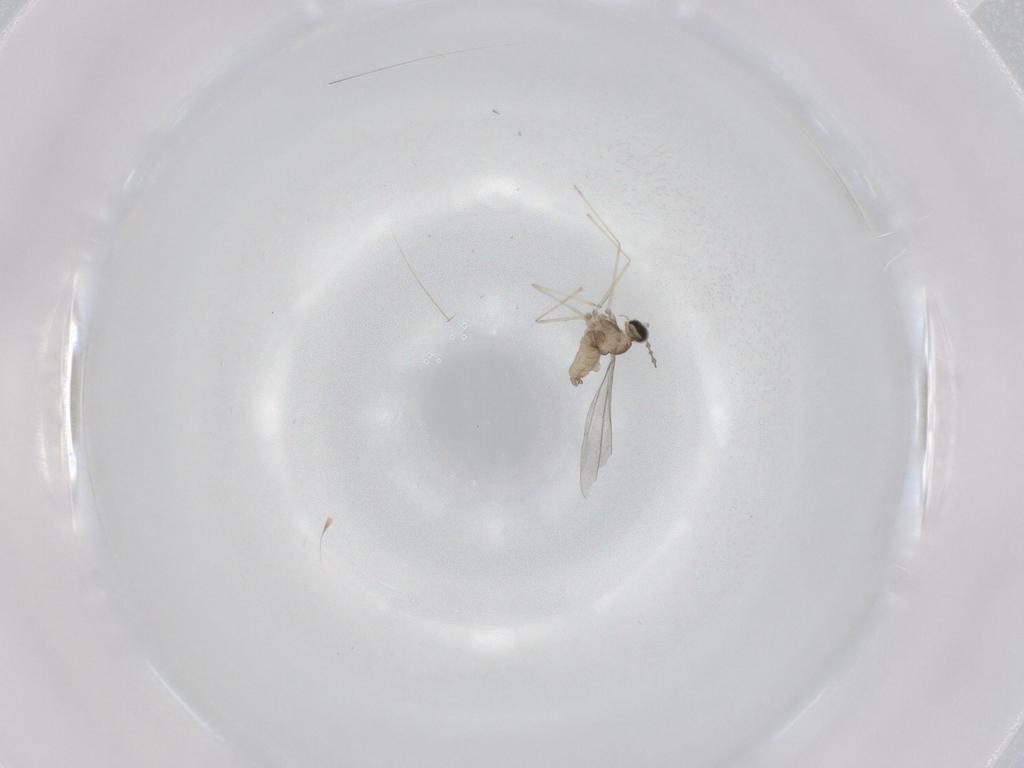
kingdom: Animalia
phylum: Arthropoda
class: Insecta
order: Diptera
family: Cecidomyiidae
